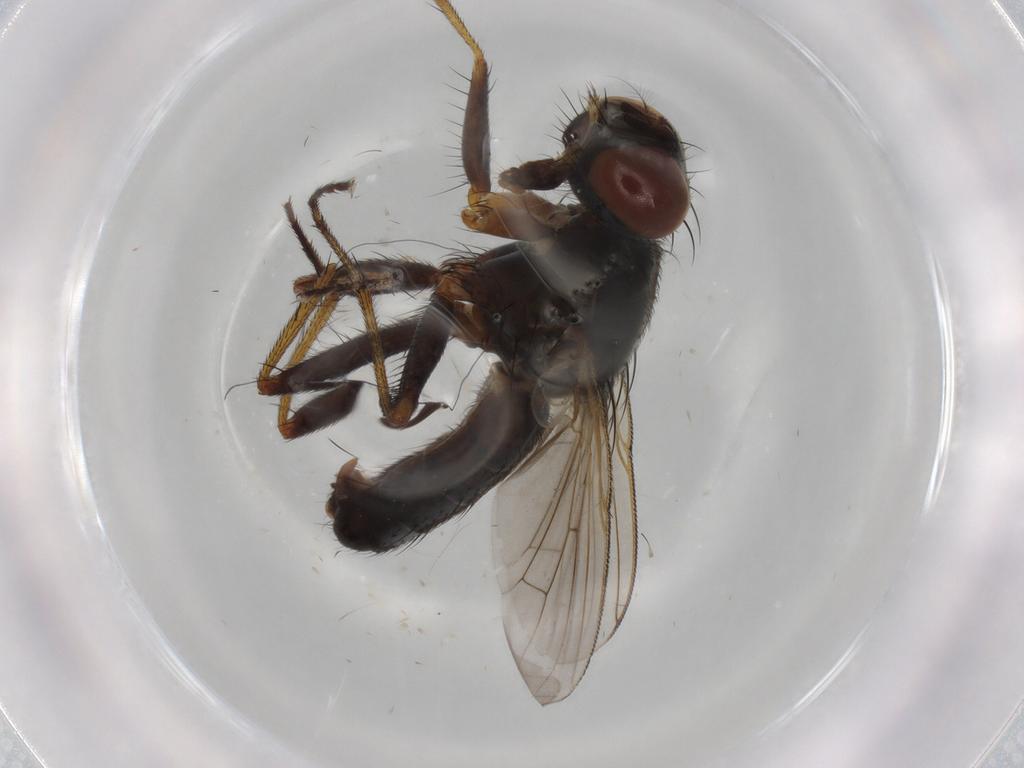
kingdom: Animalia
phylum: Arthropoda
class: Insecta
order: Diptera
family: Muscidae
